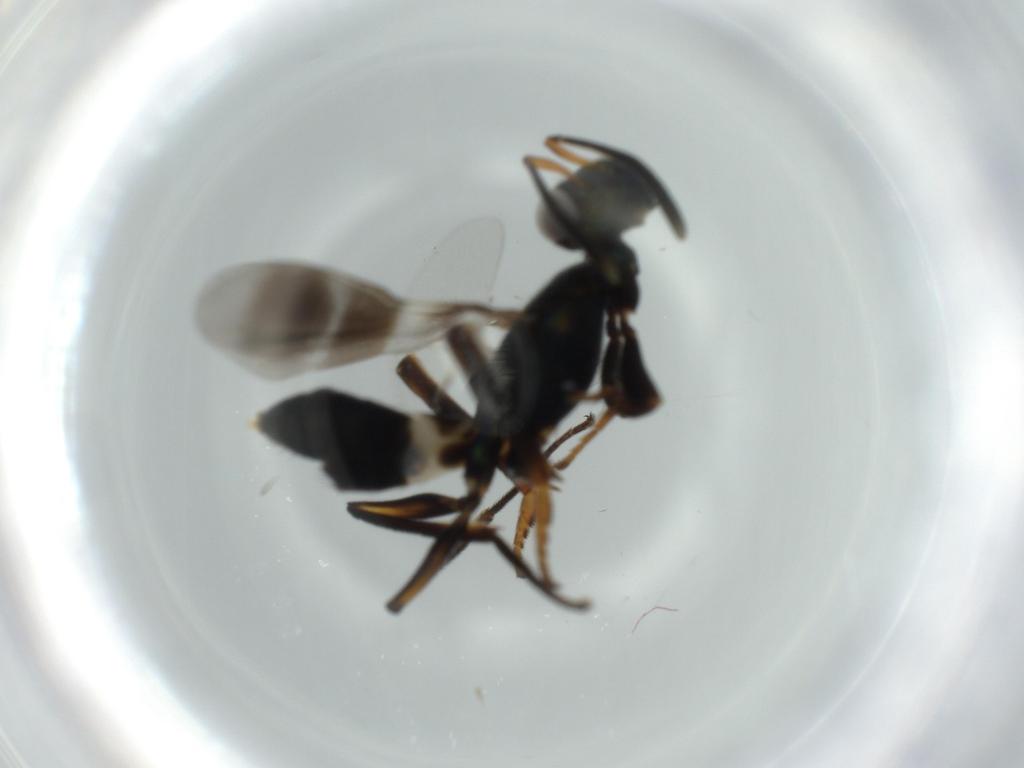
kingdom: Animalia
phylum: Arthropoda
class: Insecta
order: Hymenoptera
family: Eupelmidae
